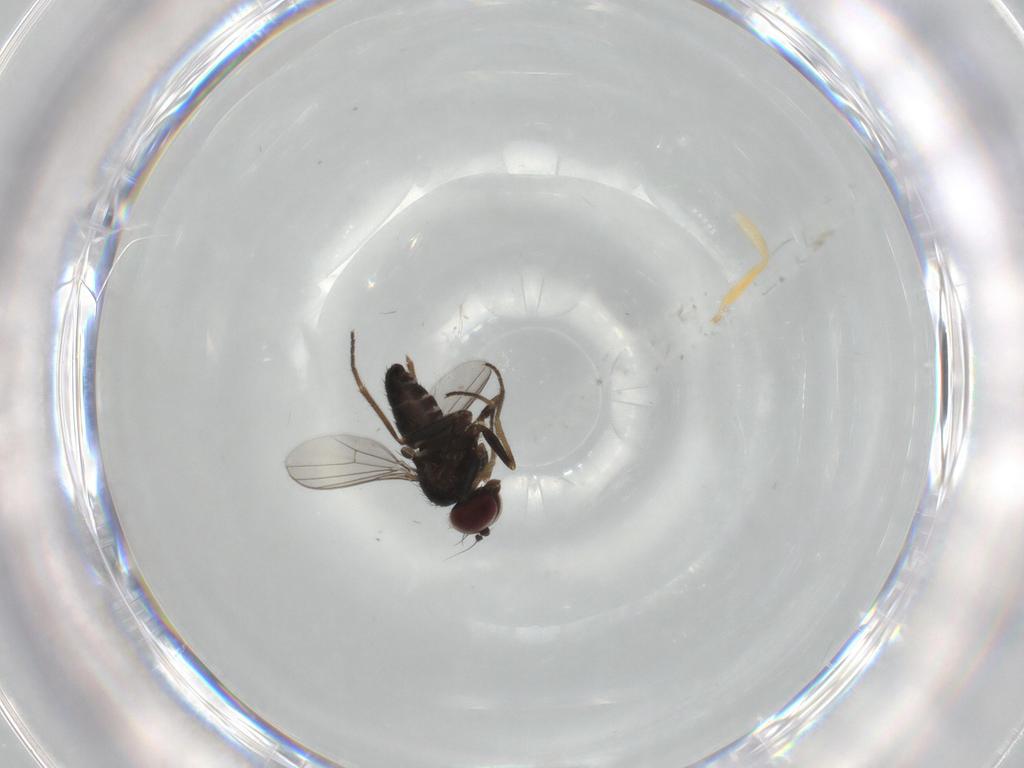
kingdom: Animalia
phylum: Arthropoda
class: Insecta
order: Diptera
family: Dolichopodidae
